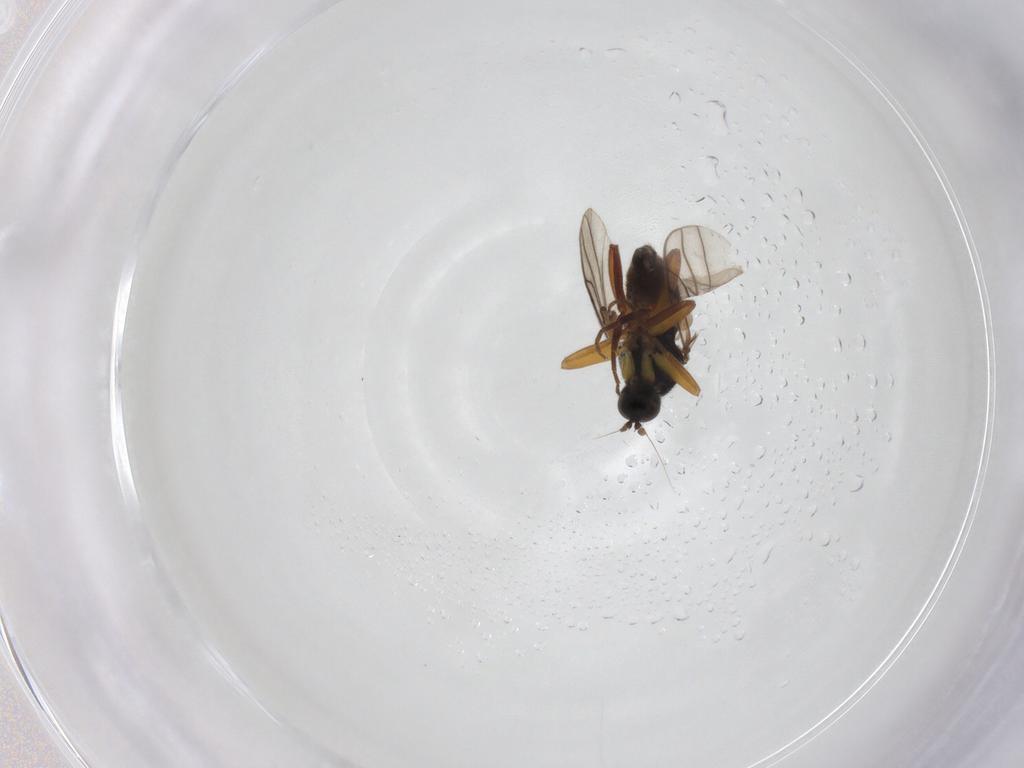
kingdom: Animalia
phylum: Arthropoda
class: Insecta
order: Diptera
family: Hybotidae
